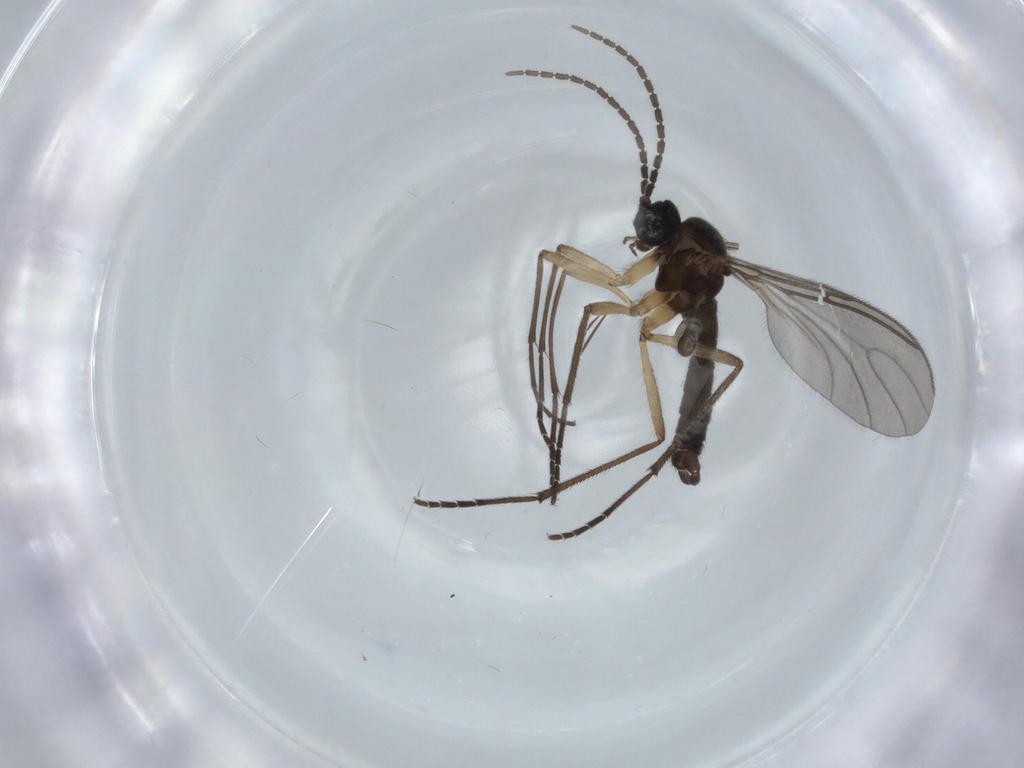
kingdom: Animalia
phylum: Arthropoda
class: Insecta
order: Diptera
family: Sciaridae
